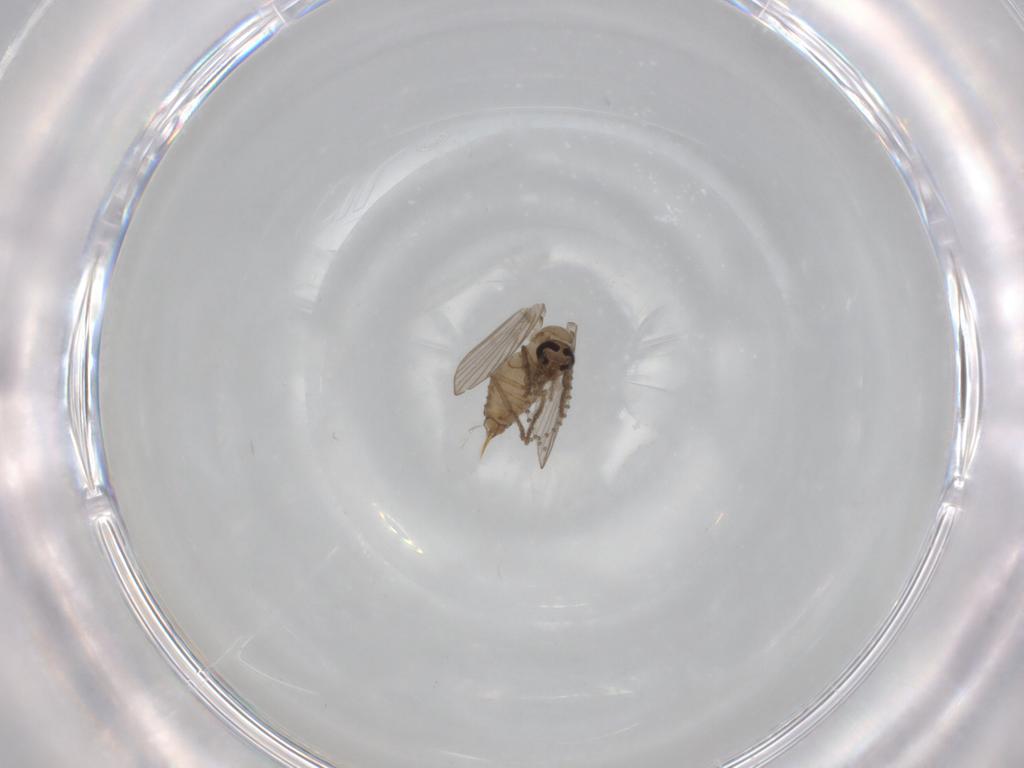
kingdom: Animalia
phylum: Arthropoda
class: Insecta
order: Diptera
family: Psychodidae
